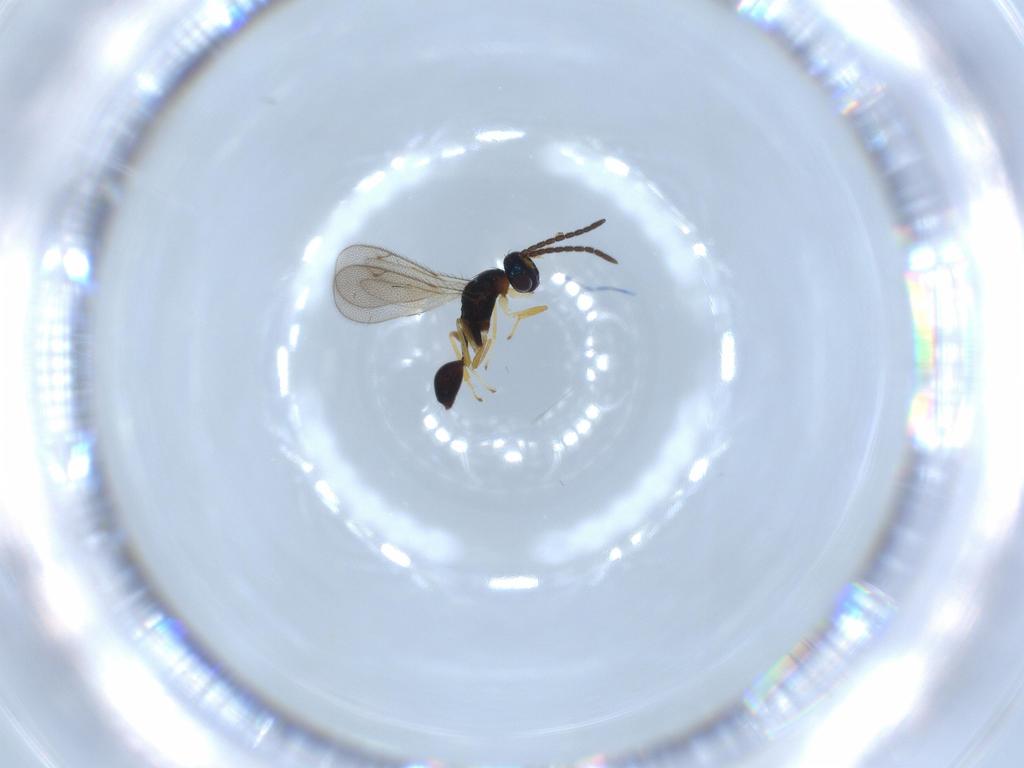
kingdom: Animalia
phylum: Arthropoda
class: Insecta
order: Hymenoptera
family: Diparidae
